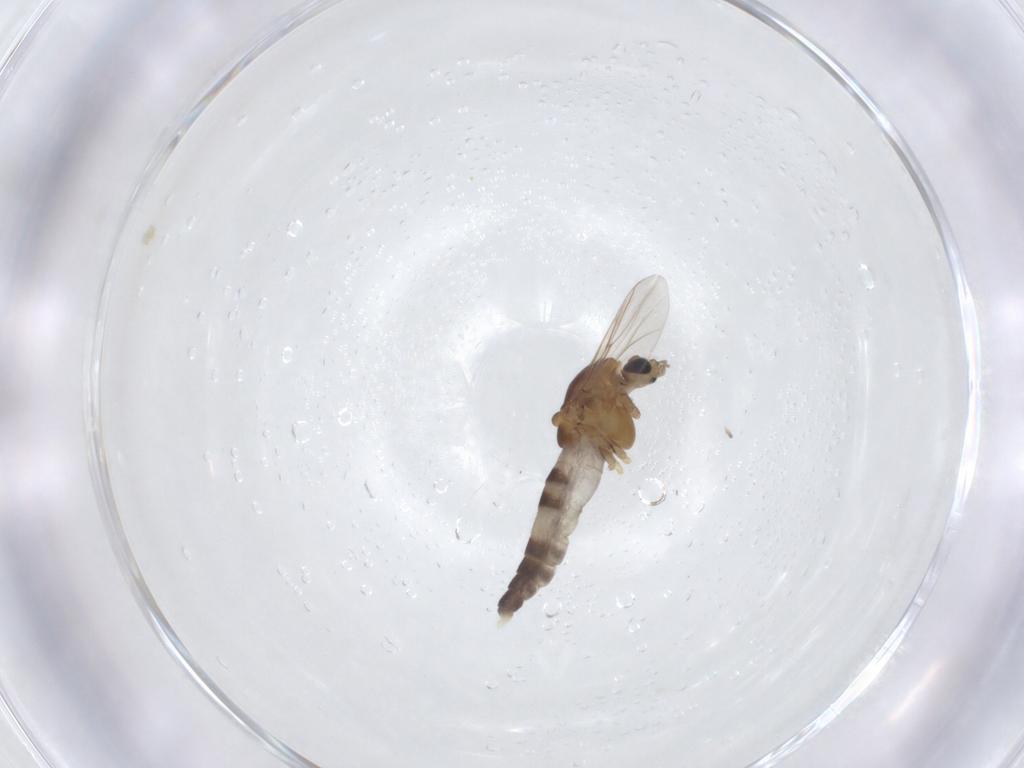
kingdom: Animalia
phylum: Arthropoda
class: Insecta
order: Diptera
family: Chironomidae
